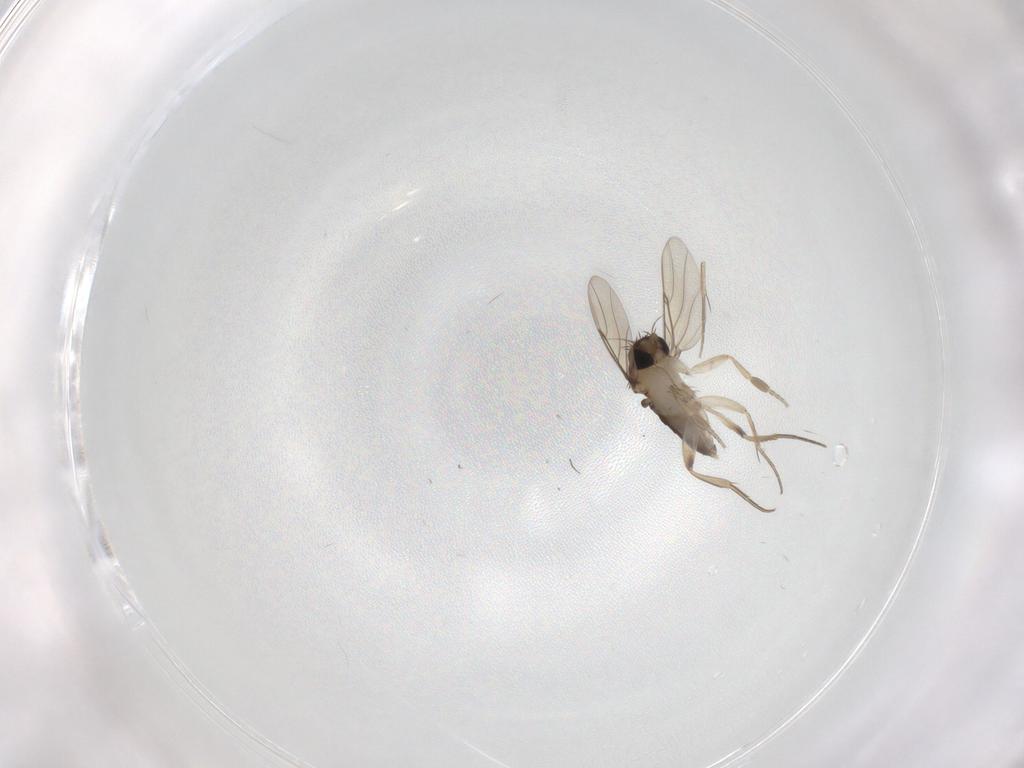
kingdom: Animalia
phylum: Arthropoda
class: Insecta
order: Diptera
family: Phoridae
